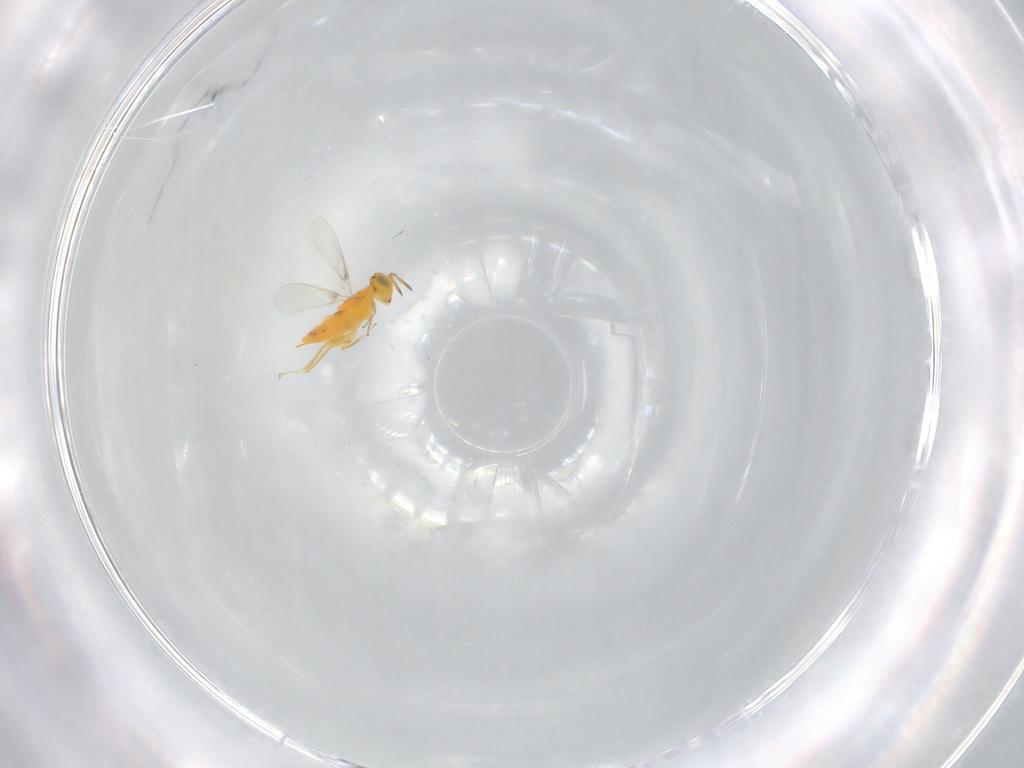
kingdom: Animalia
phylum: Arthropoda
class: Insecta
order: Hymenoptera
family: Aphelinidae
